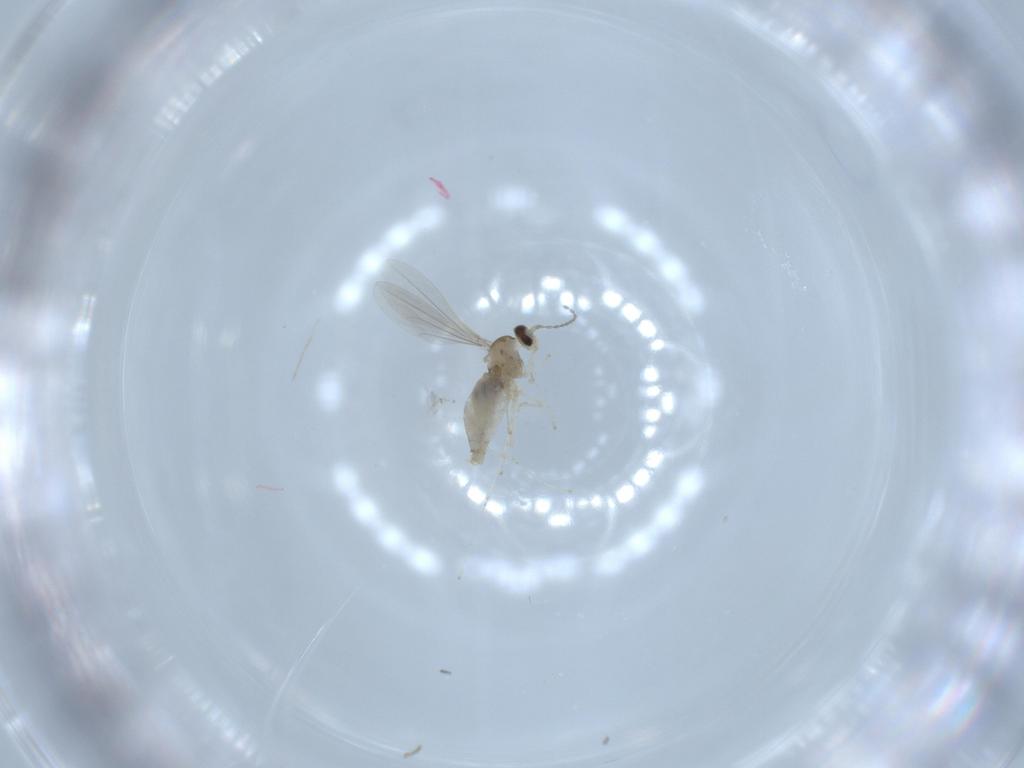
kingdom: Animalia
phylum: Arthropoda
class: Insecta
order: Diptera
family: Cecidomyiidae
